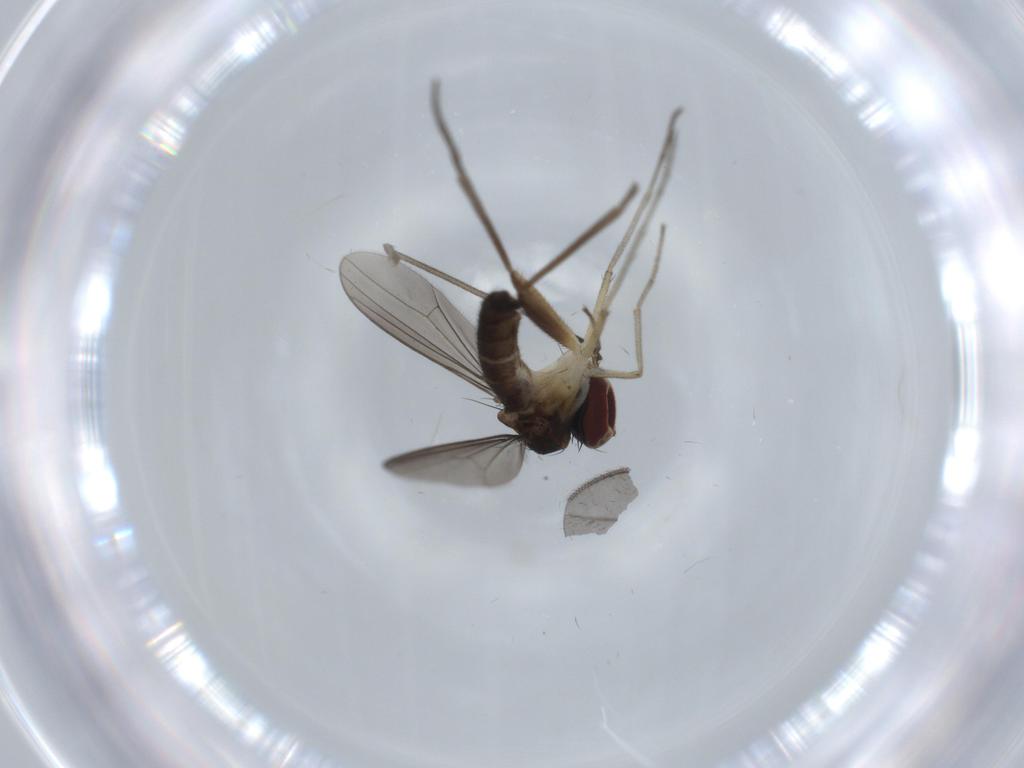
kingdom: Animalia
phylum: Arthropoda
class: Insecta
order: Diptera
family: Sciaridae
